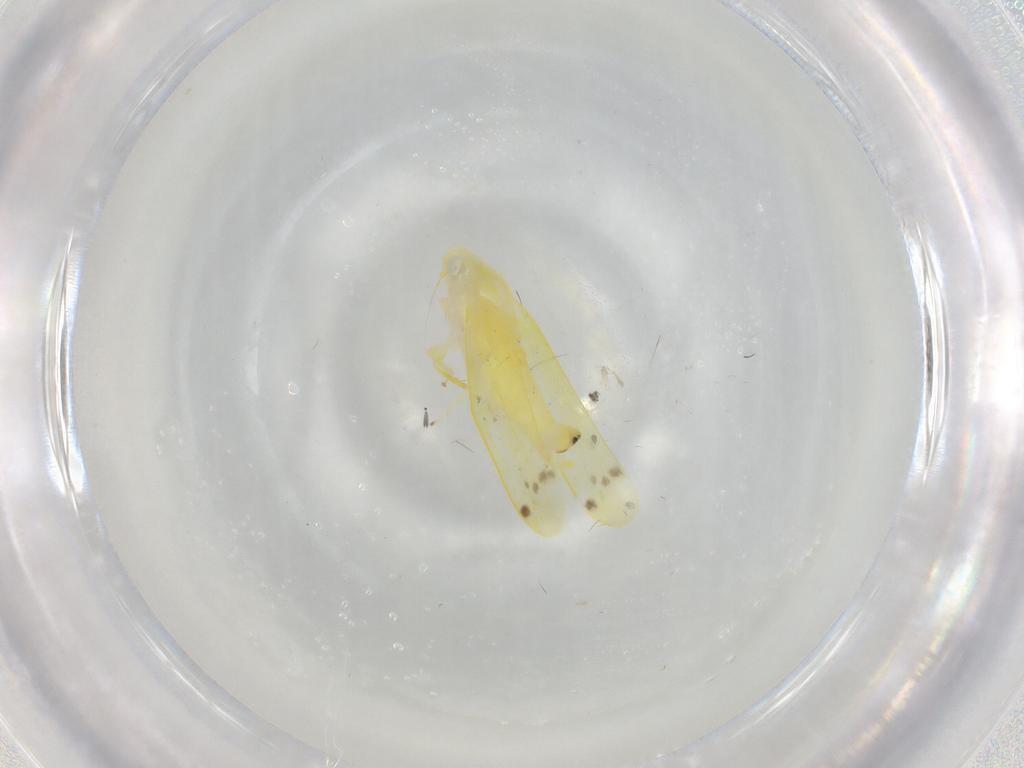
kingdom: Animalia
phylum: Arthropoda
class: Insecta
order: Hemiptera
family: Cicadellidae
